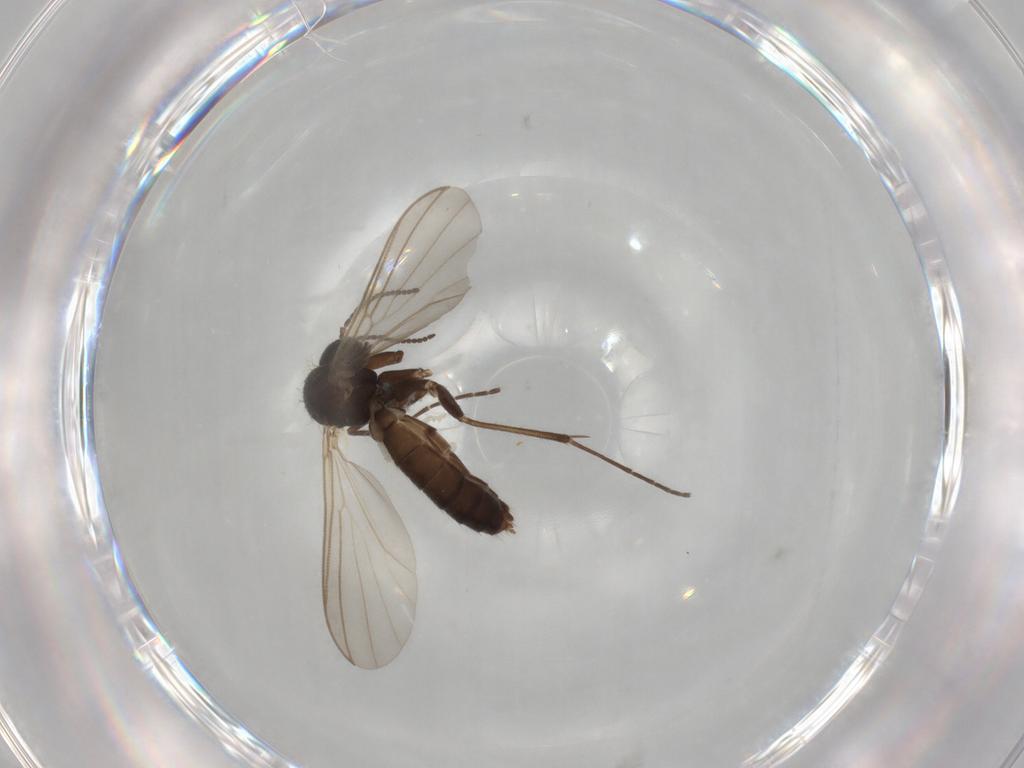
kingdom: Animalia
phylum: Arthropoda
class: Insecta
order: Diptera
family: Mycetophilidae
